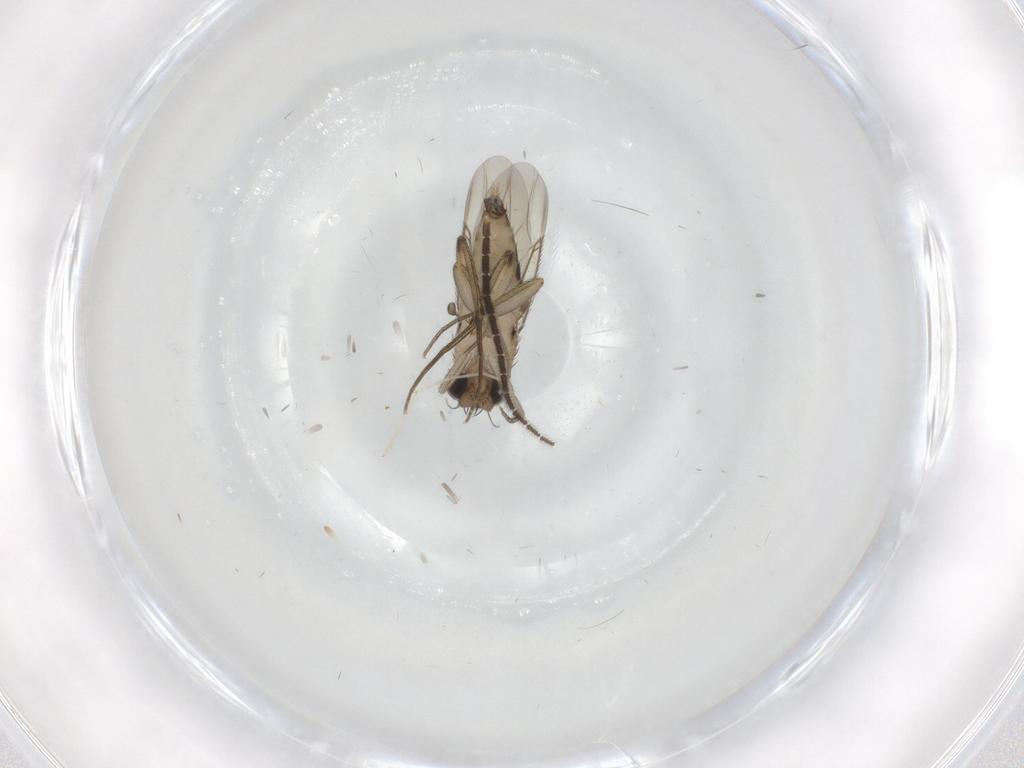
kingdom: Animalia
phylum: Arthropoda
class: Insecta
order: Diptera
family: Phoridae
